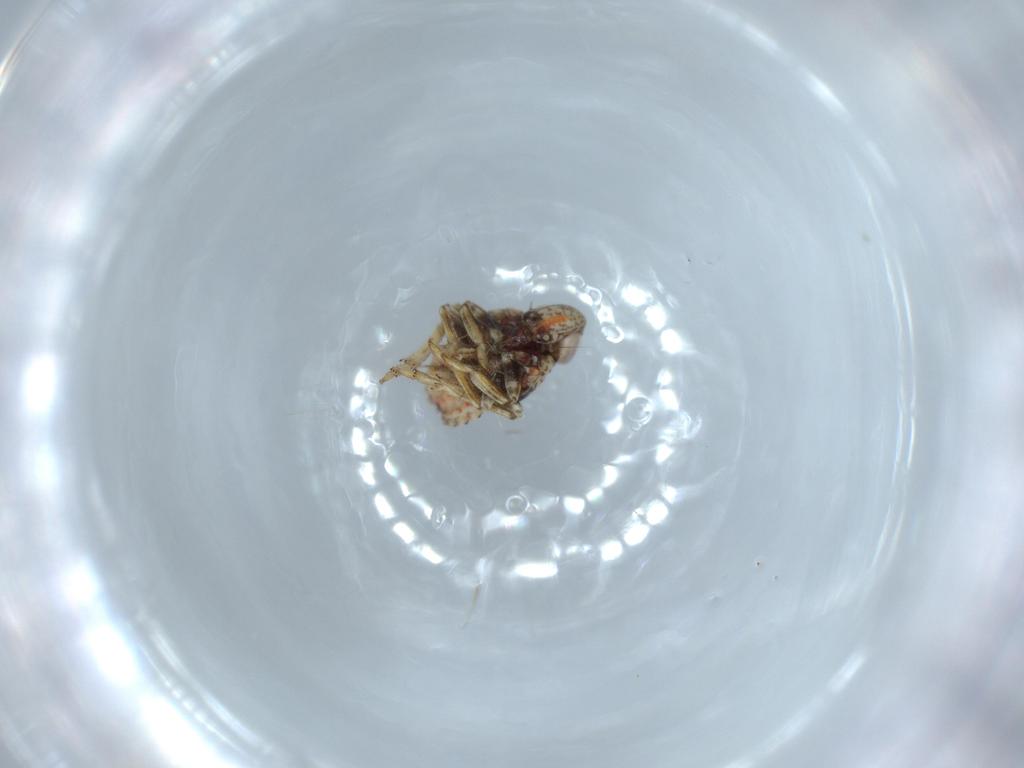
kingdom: Animalia
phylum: Arthropoda
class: Insecta
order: Hemiptera
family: Issidae
